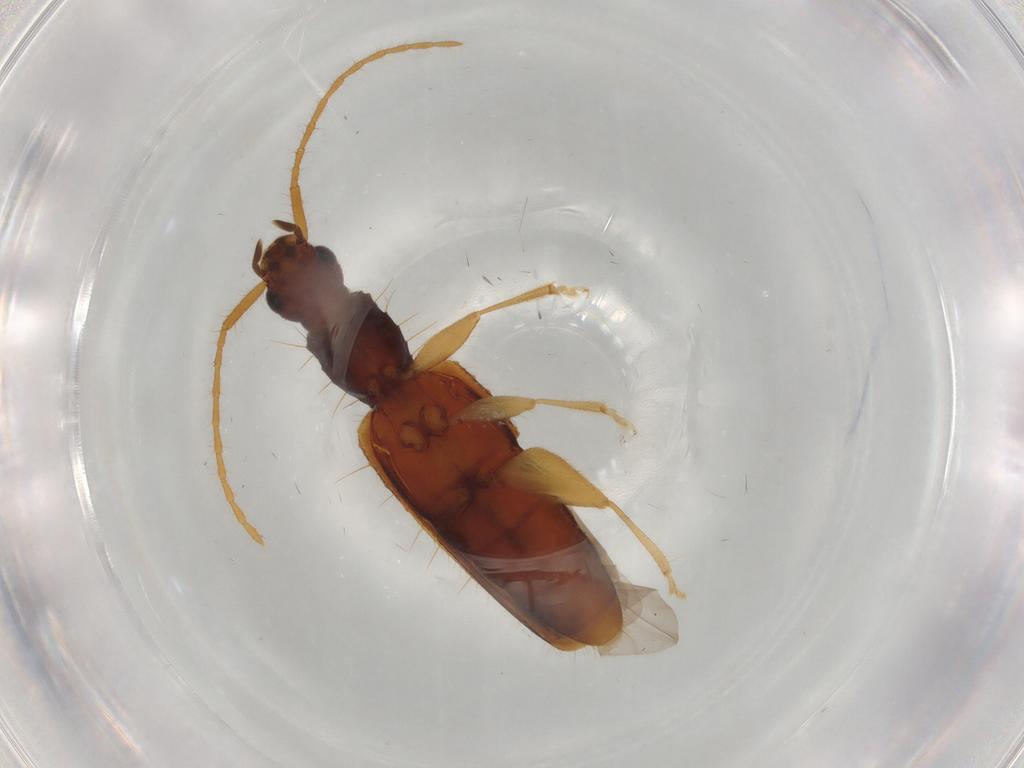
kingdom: Animalia
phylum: Arthropoda
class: Insecta
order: Coleoptera
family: Silvanidae
